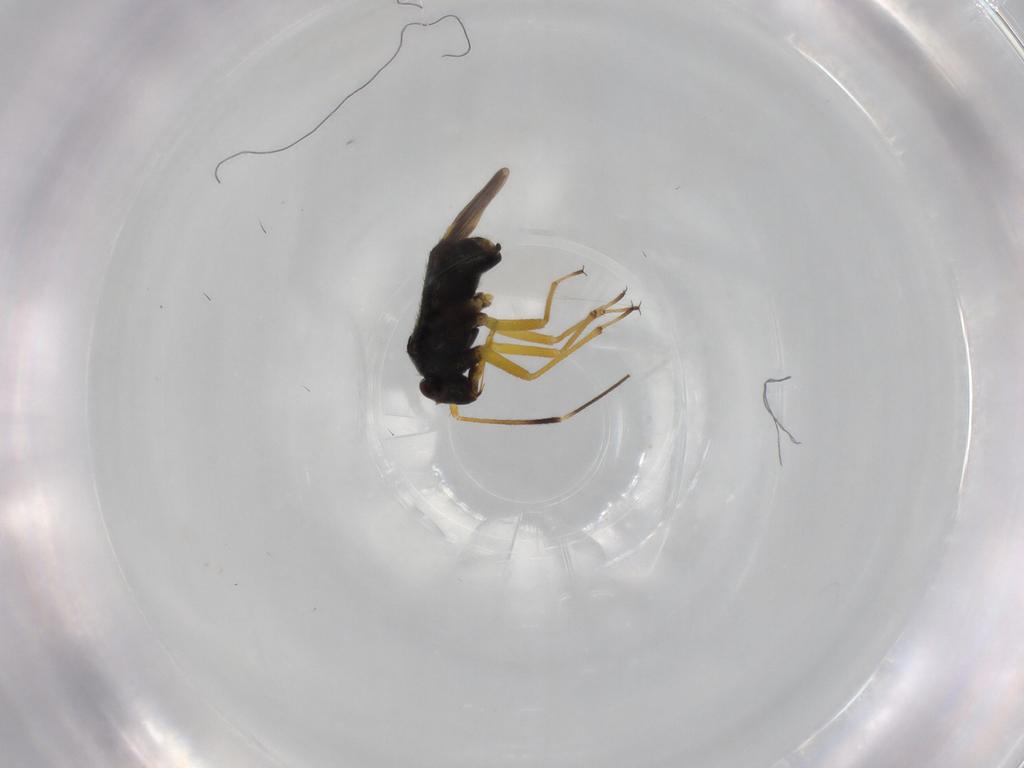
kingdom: Animalia
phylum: Arthropoda
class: Insecta
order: Hemiptera
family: Miridae
